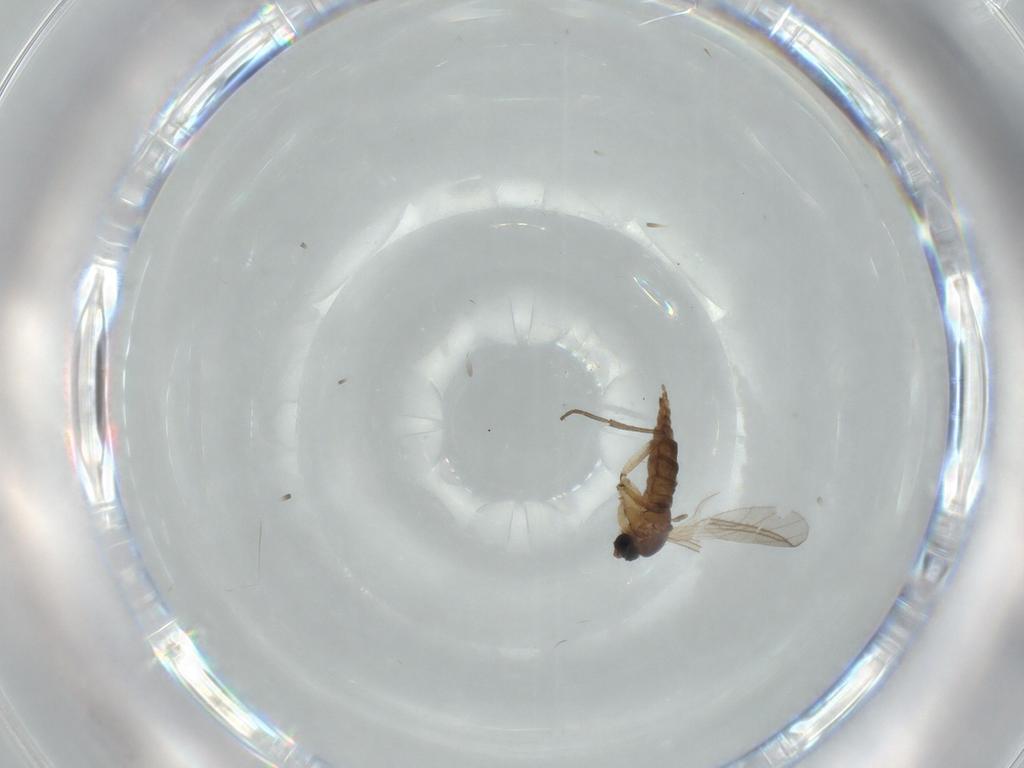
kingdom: Animalia
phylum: Arthropoda
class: Insecta
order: Diptera
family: Sciaridae
